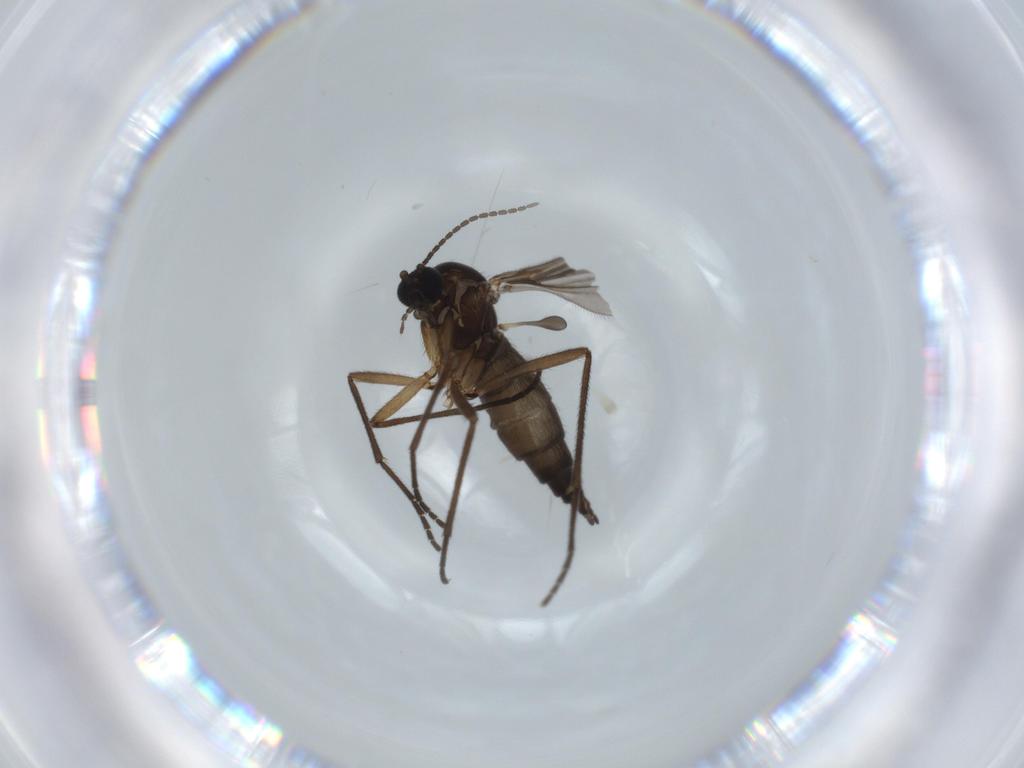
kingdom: Animalia
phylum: Arthropoda
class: Insecta
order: Diptera
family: Sciaridae
